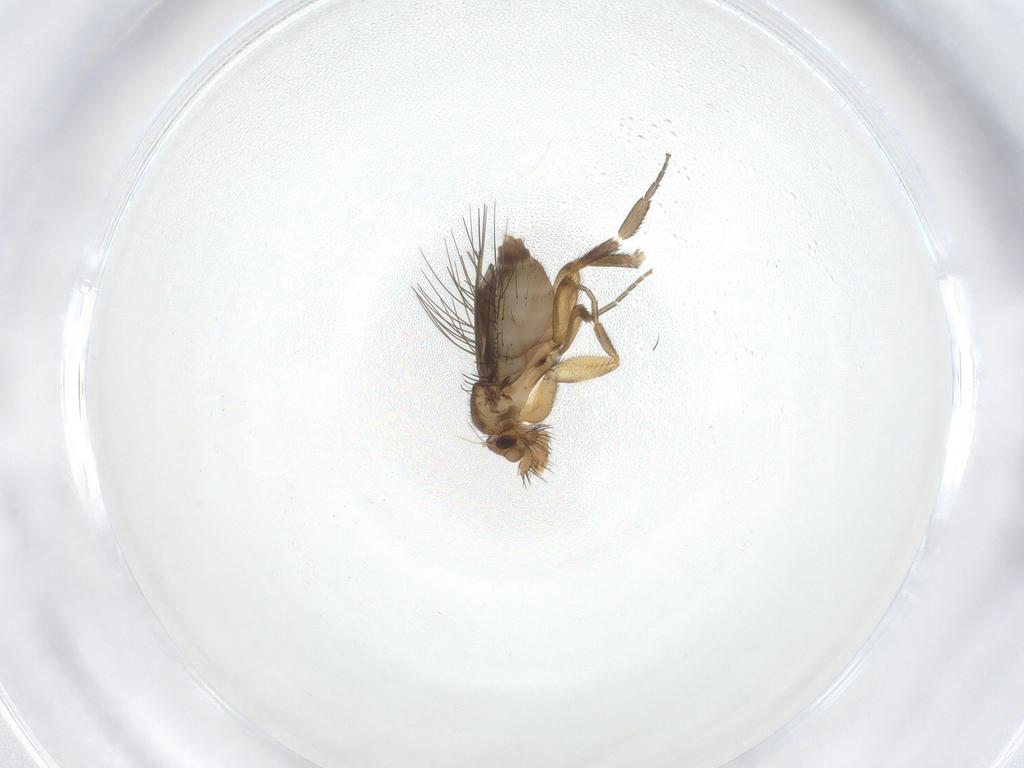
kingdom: Animalia
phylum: Arthropoda
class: Insecta
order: Diptera
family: Phoridae
